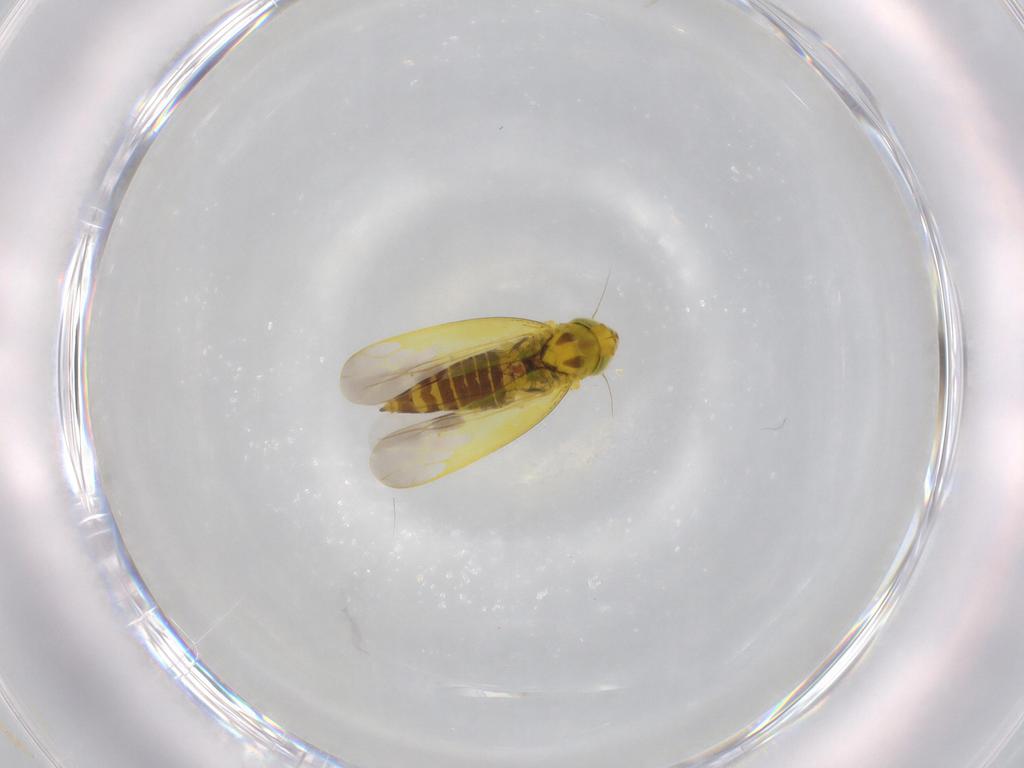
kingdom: Animalia
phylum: Arthropoda
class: Insecta
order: Hemiptera
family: Cicadellidae
